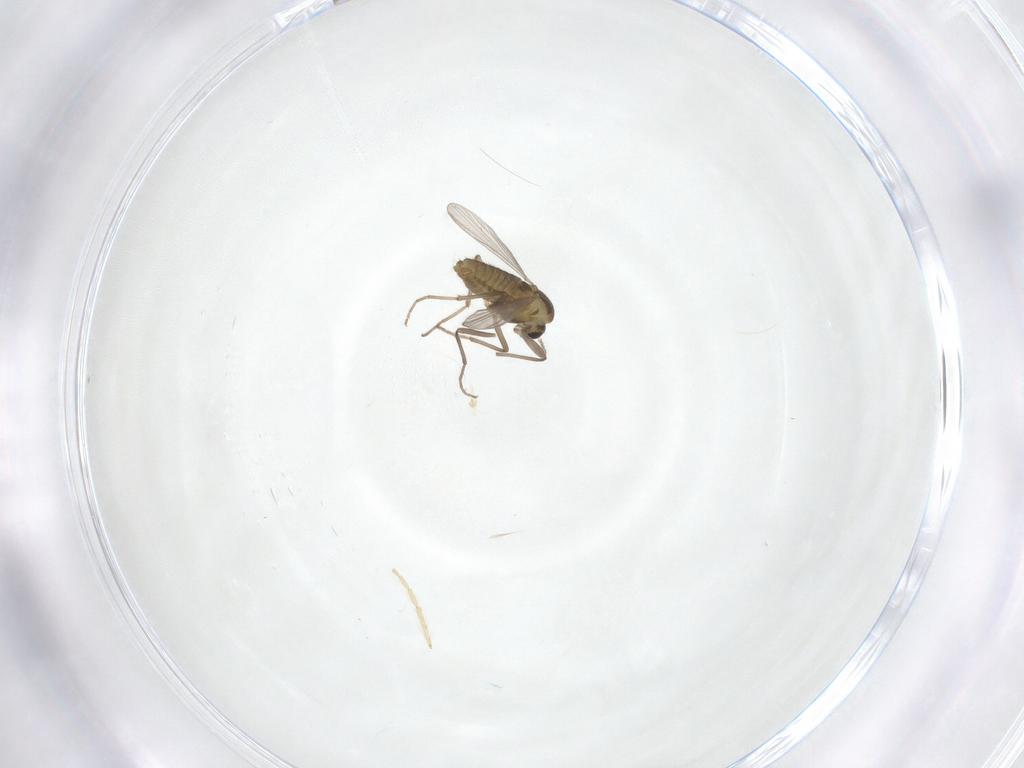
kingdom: Animalia
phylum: Arthropoda
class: Insecta
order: Diptera
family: Chironomidae
